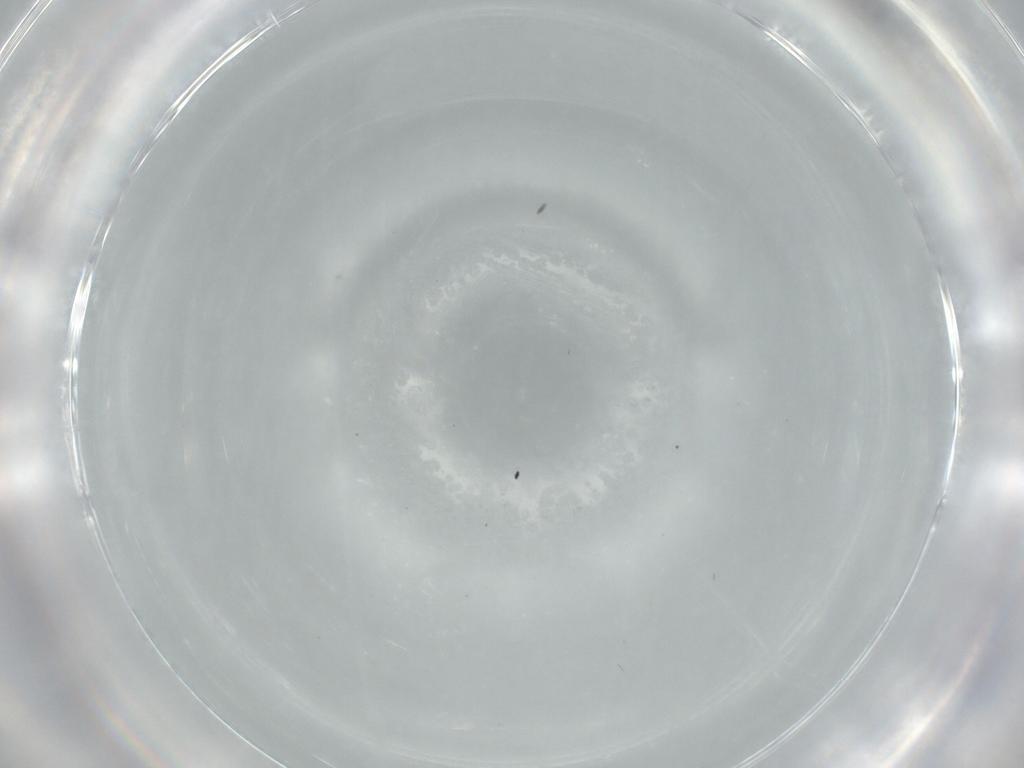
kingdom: Animalia
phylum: Arthropoda
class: Insecta
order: Diptera
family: Cecidomyiidae
